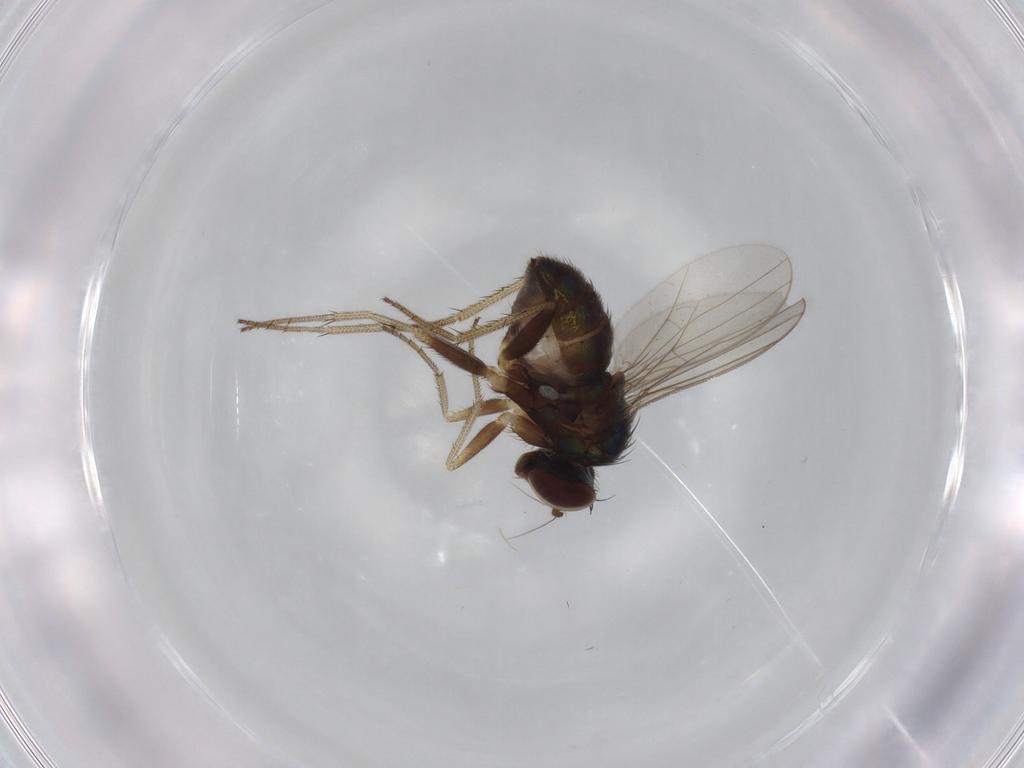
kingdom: Animalia
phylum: Arthropoda
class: Insecta
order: Diptera
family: Dolichopodidae
